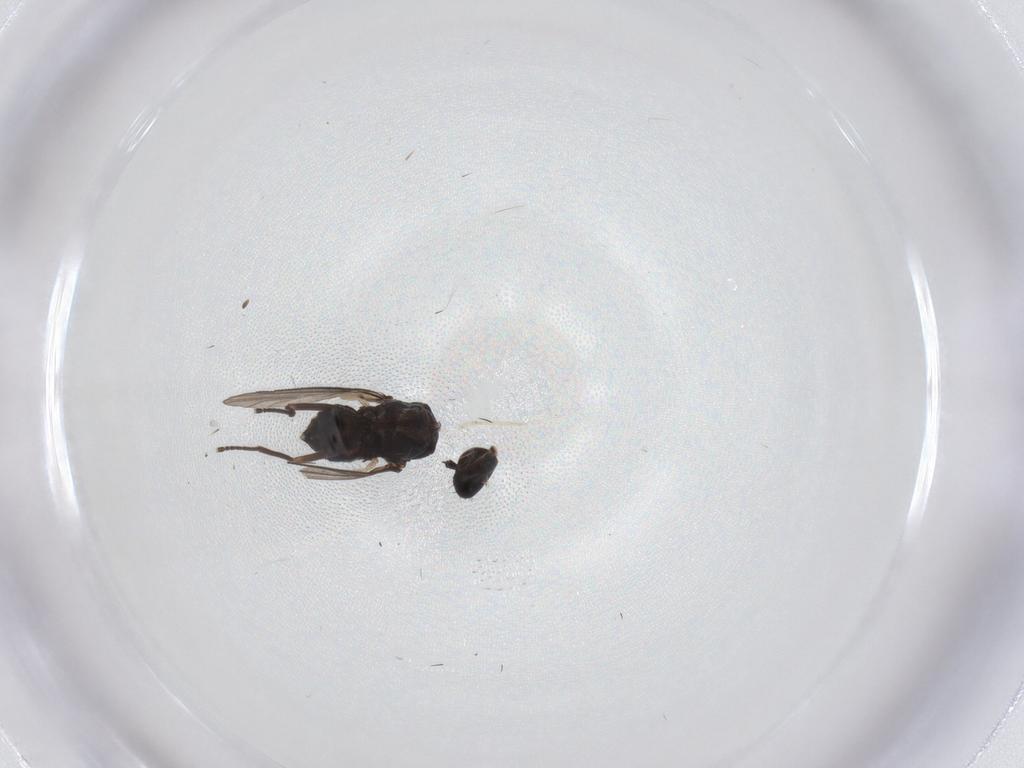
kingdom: Animalia
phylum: Arthropoda
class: Insecta
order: Diptera
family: Dolichopodidae
